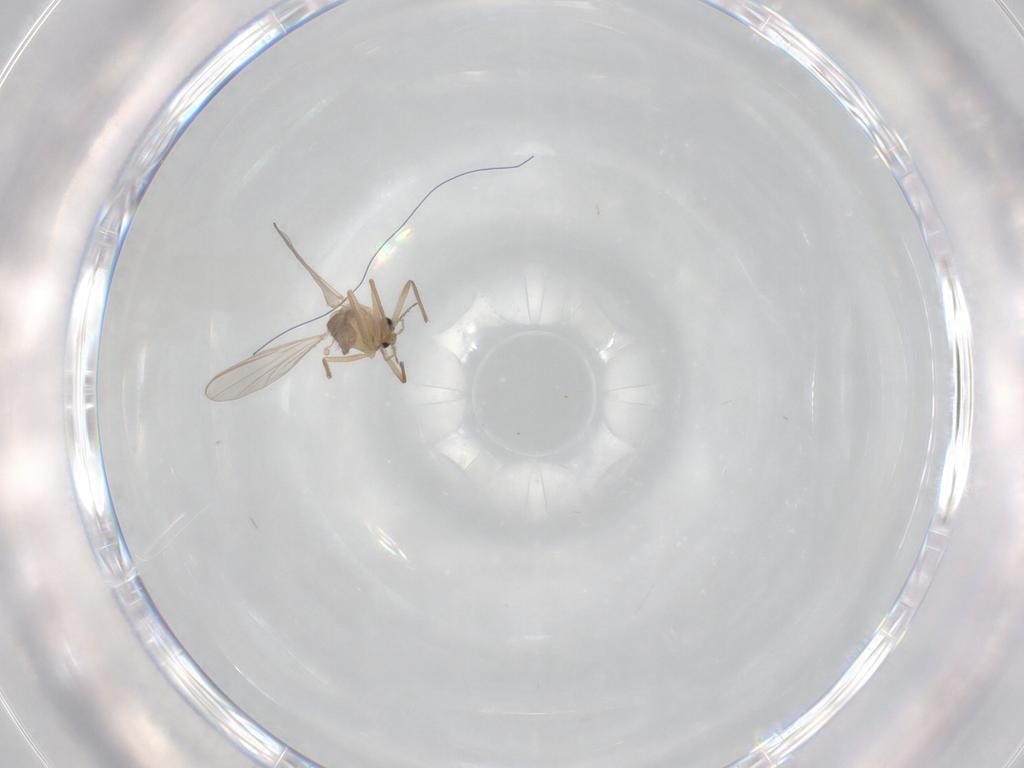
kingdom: Animalia
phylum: Arthropoda
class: Insecta
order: Diptera
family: Chironomidae
